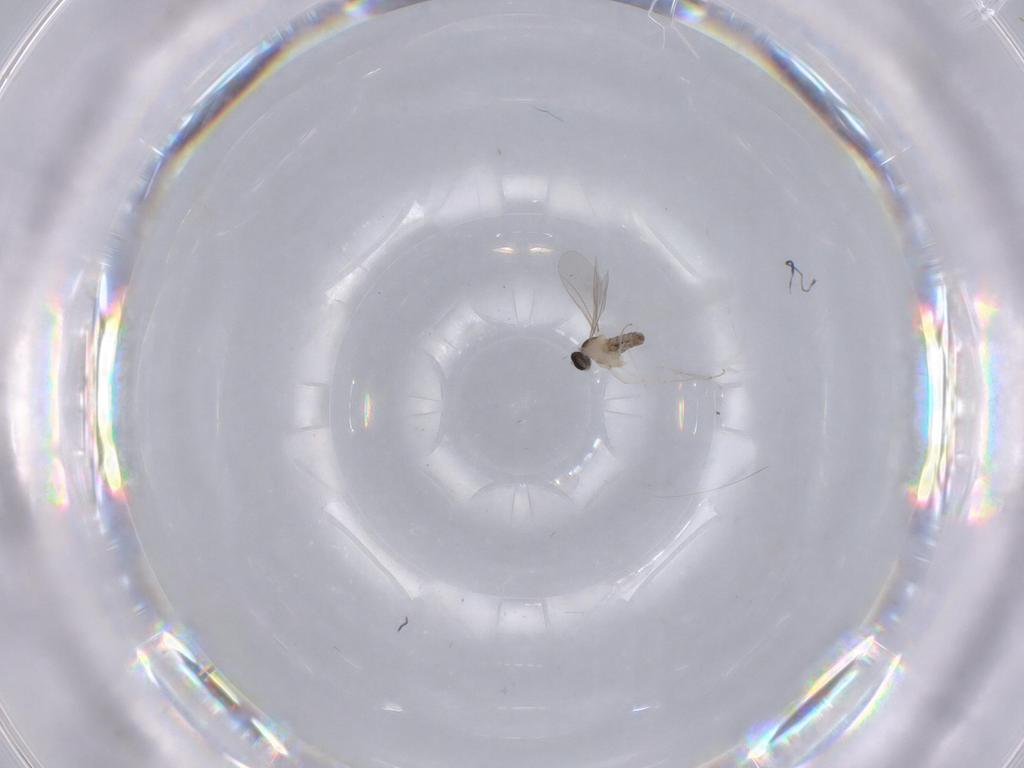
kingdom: Animalia
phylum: Arthropoda
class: Insecta
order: Diptera
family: Cecidomyiidae
